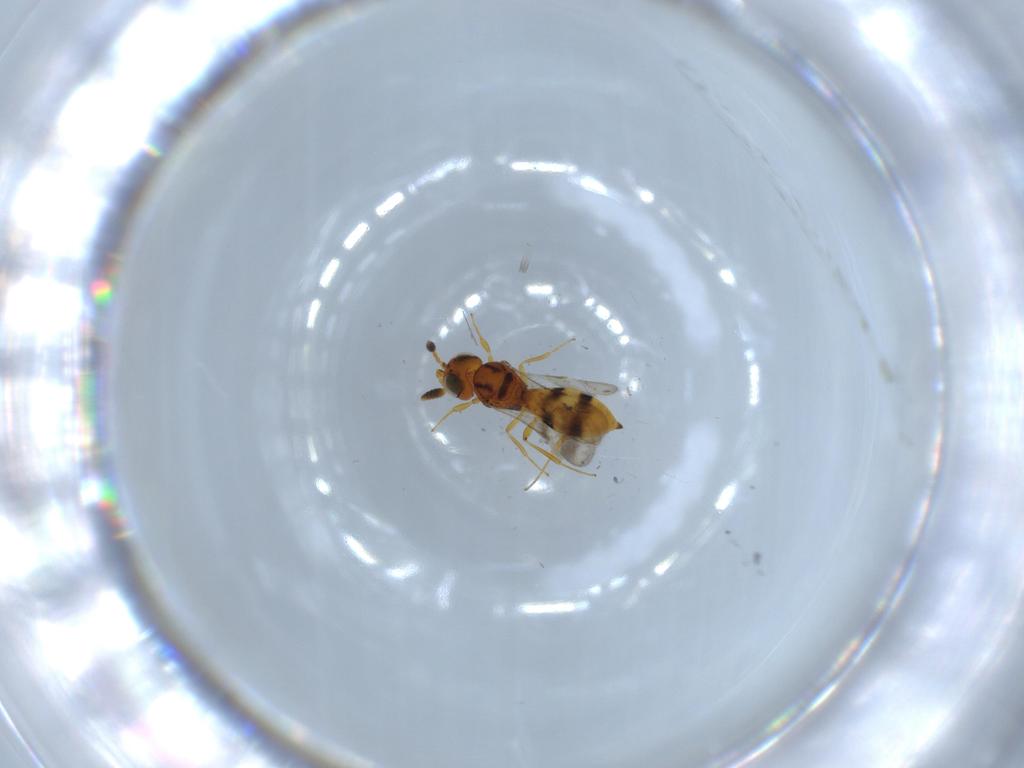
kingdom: Animalia
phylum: Arthropoda
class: Insecta
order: Hymenoptera
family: Scelionidae
